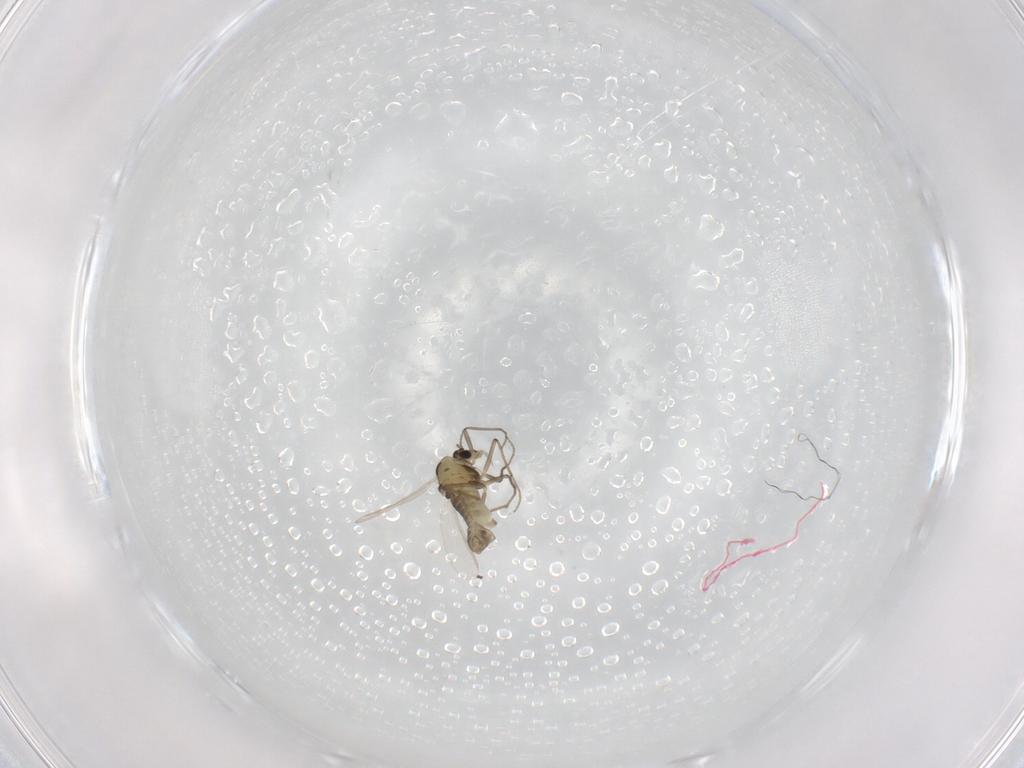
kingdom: Animalia
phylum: Arthropoda
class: Insecta
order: Diptera
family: Chironomidae
